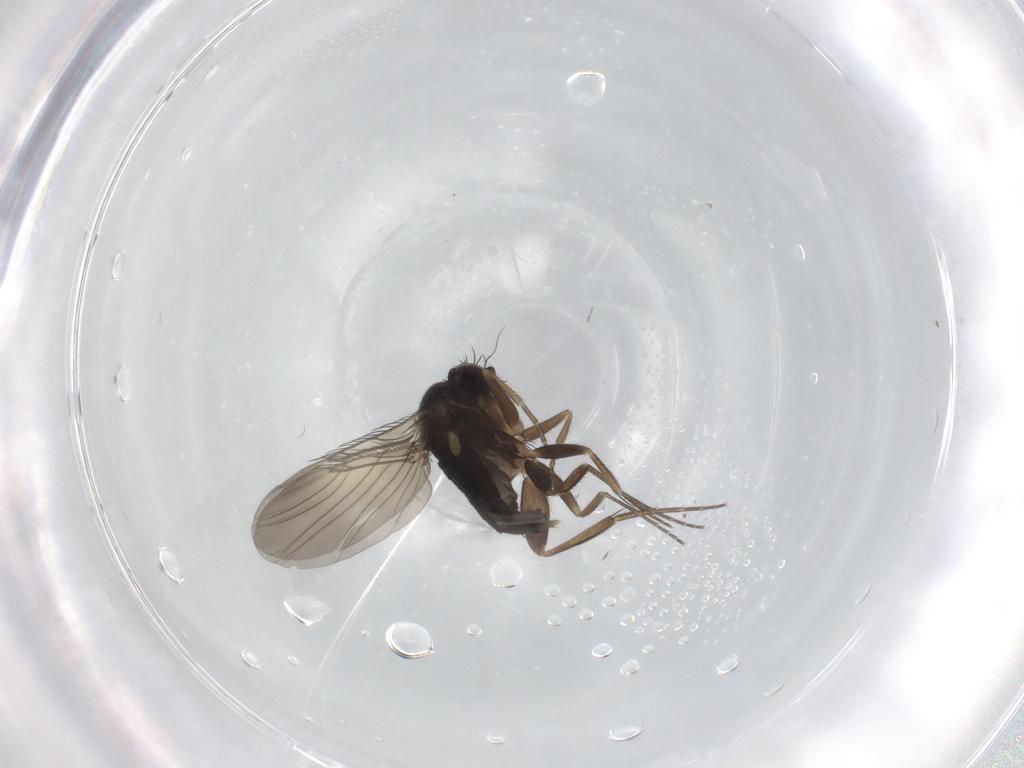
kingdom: Animalia
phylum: Arthropoda
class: Insecta
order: Diptera
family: Phoridae
